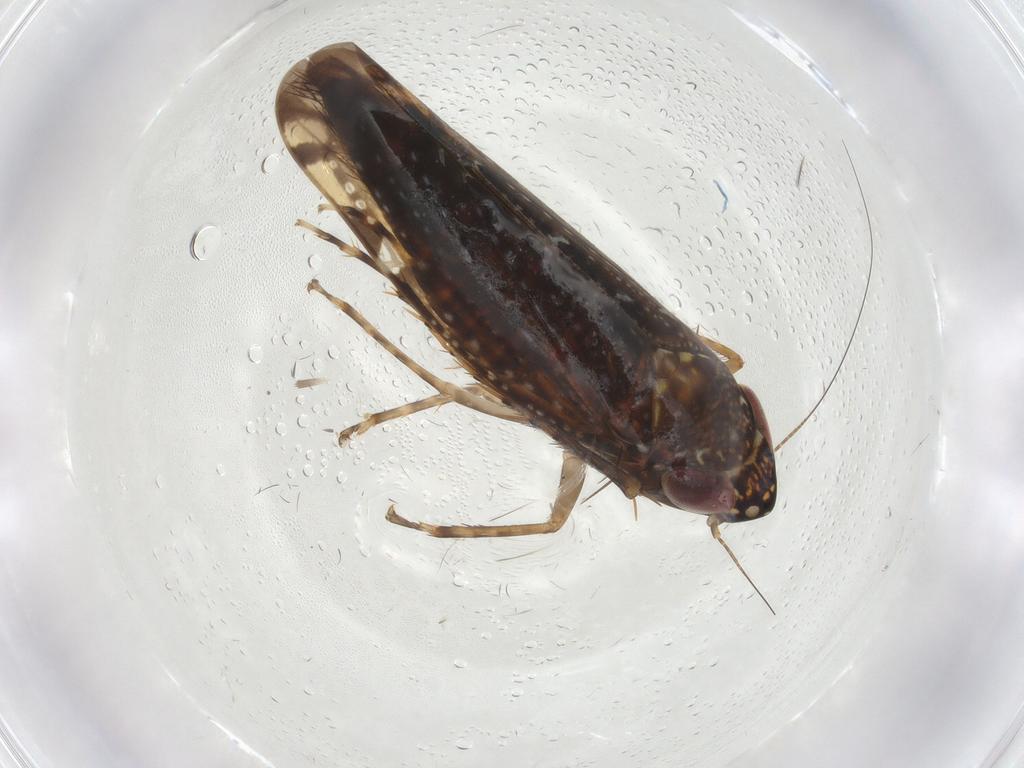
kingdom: Animalia
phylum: Arthropoda
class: Insecta
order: Hemiptera
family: Cicadellidae
